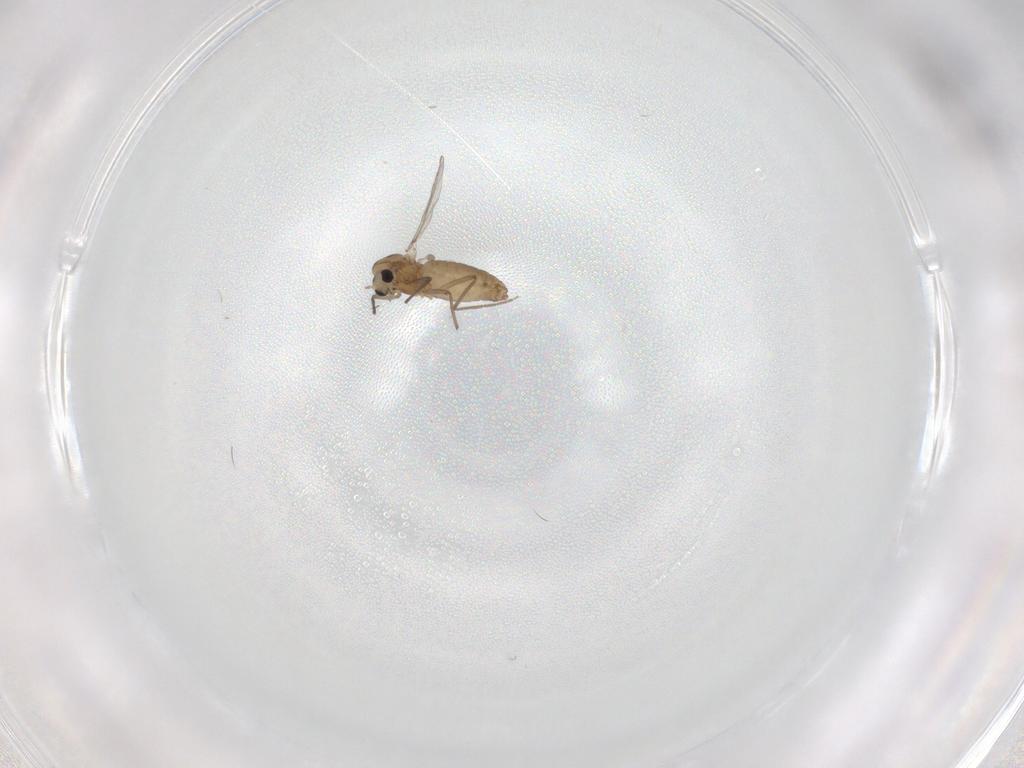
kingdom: Animalia
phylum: Arthropoda
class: Insecta
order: Diptera
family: Chironomidae
